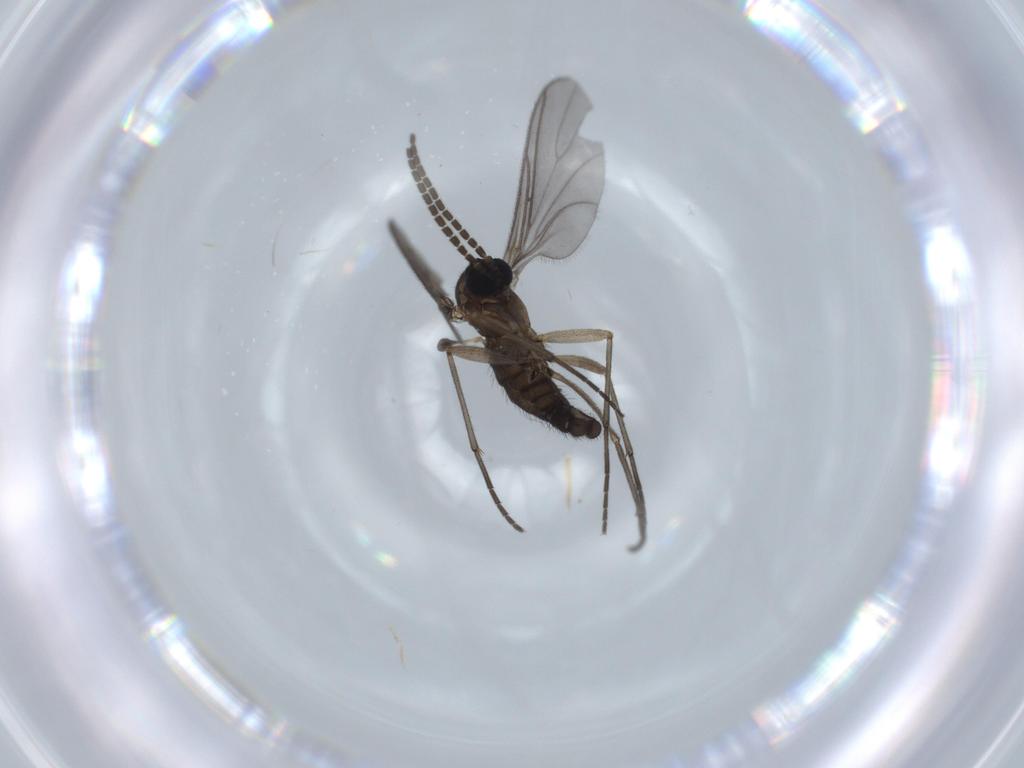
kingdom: Animalia
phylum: Arthropoda
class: Insecta
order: Diptera
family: Sciaridae
